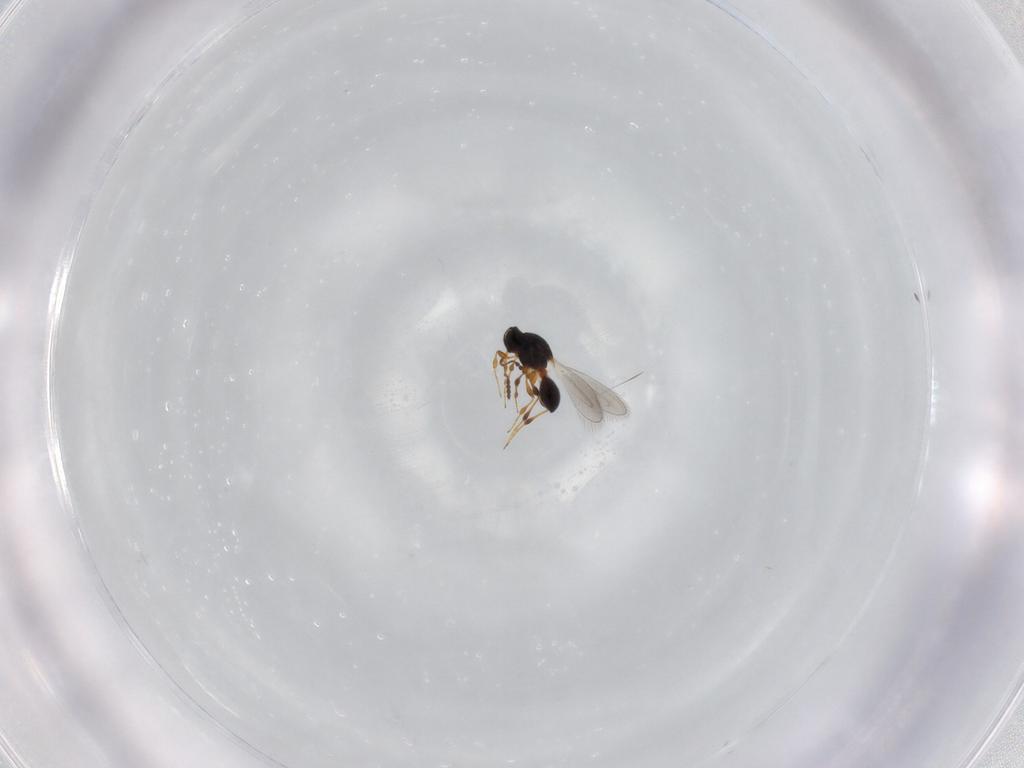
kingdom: Animalia
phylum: Arthropoda
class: Insecta
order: Hymenoptera
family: Platygastridae
